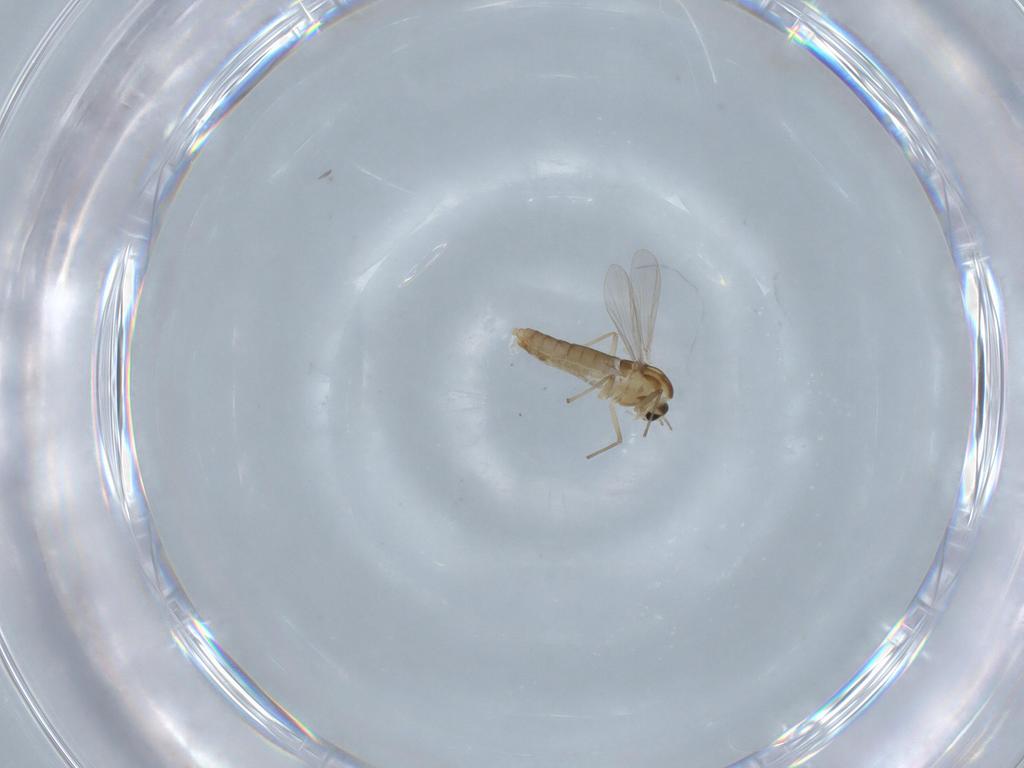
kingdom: Animalia
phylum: Arthropoda
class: Insecta
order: Diptera
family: Chironomidae
